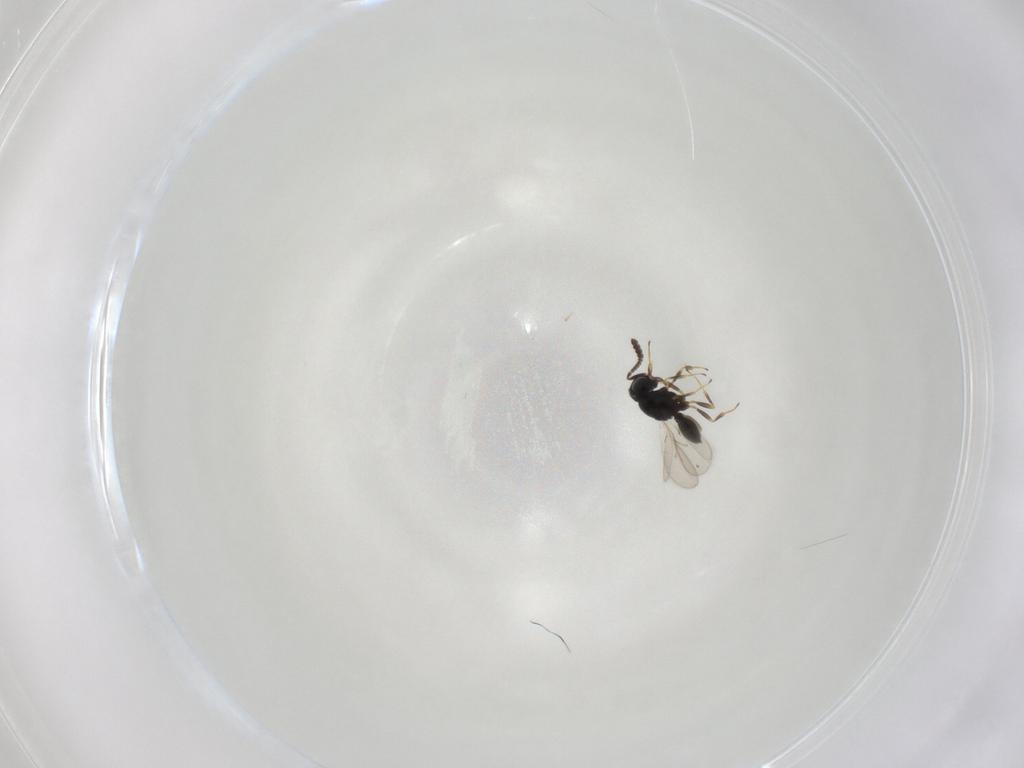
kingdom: Animalia
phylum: Arthropoda
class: Insecta
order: Hymenoptera
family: Scelionidae
